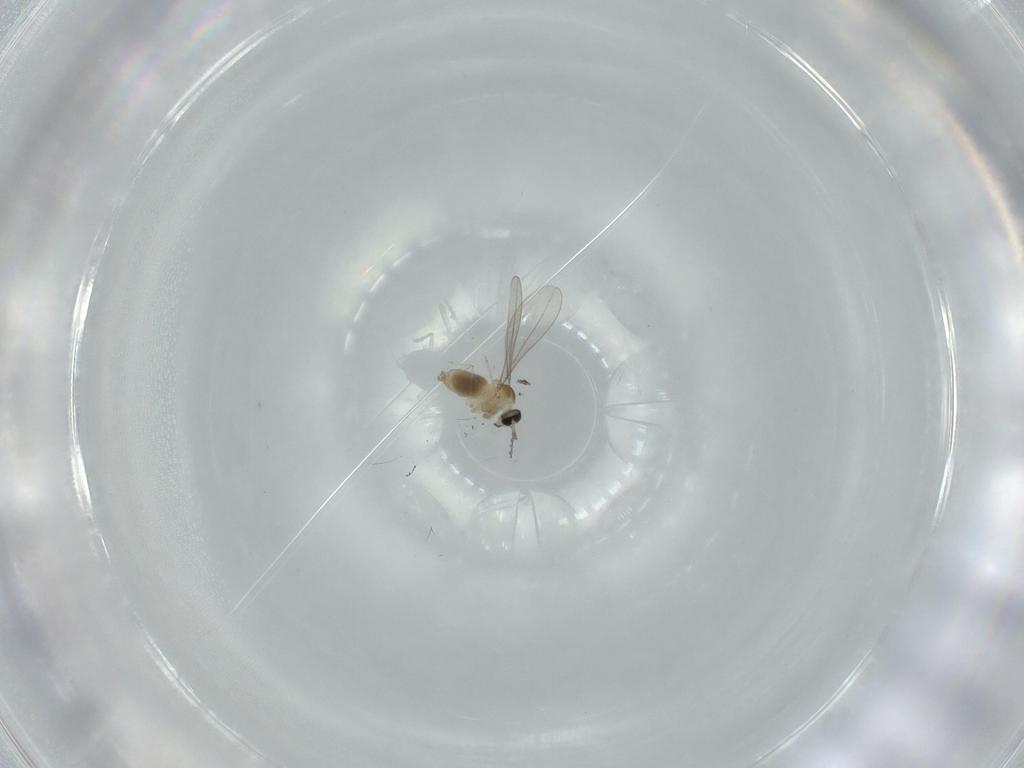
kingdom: Animalia
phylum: Arthropoda
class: Insecta
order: Diptera
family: Cecidomyiidae
